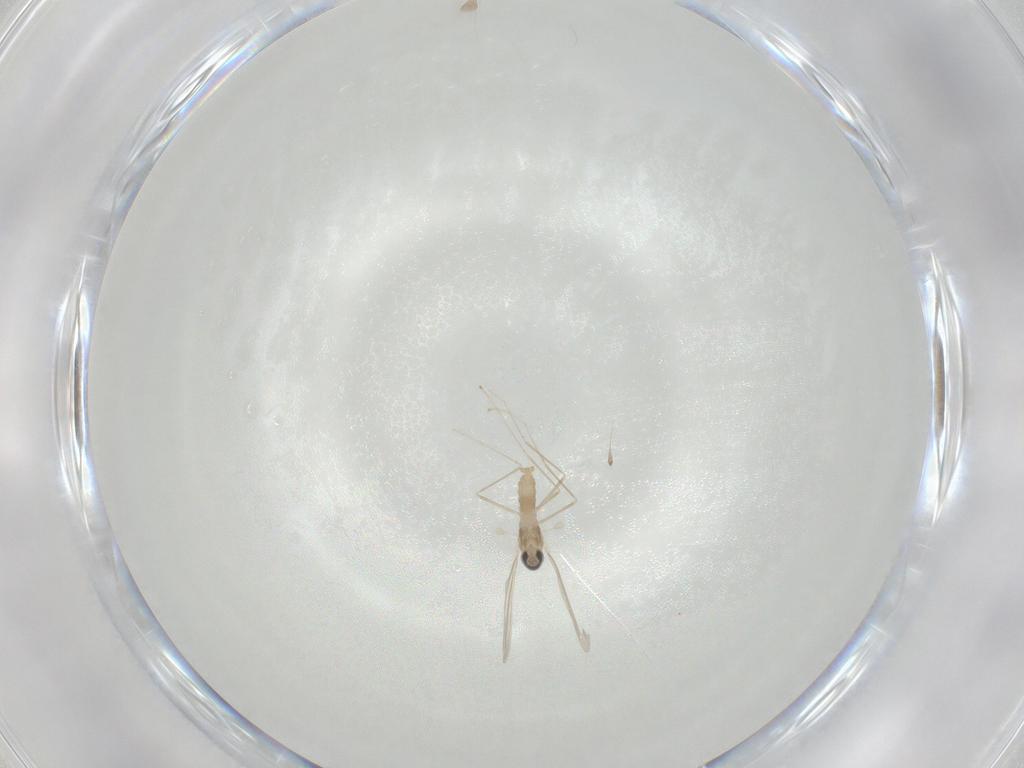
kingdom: Animalia
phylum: Arthropoda
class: Insecta
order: Diptera
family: Cecidomyiidae
